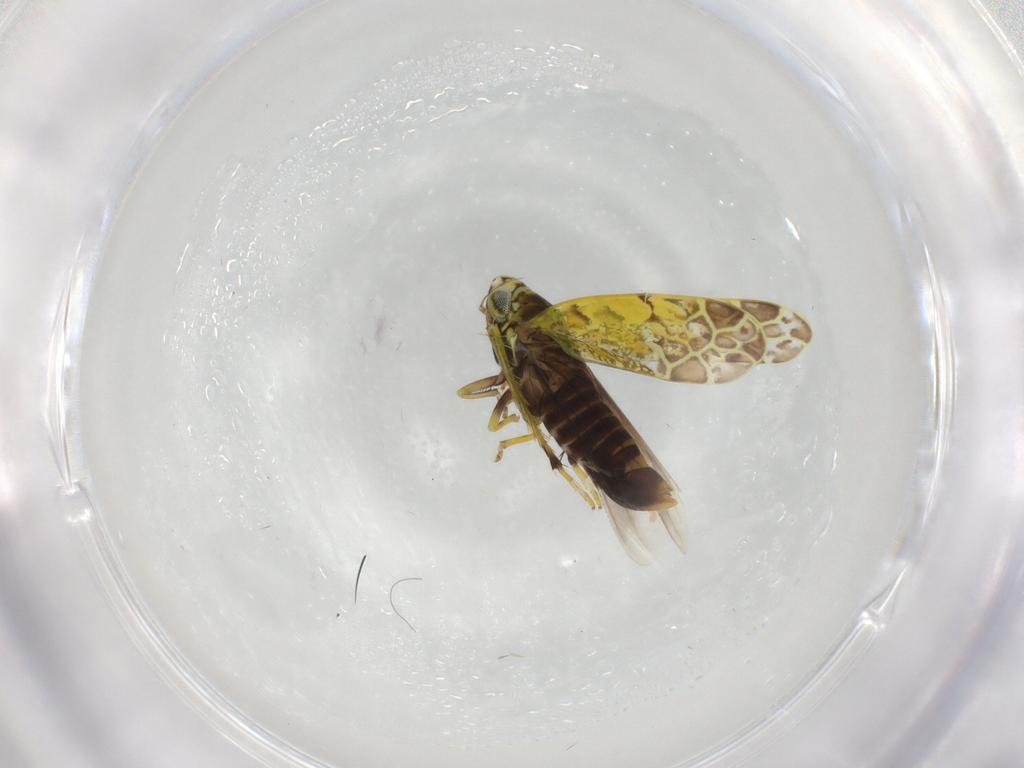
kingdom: Animalia
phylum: Arthropoda
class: Insecta
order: Hemiptera
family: Cicadellidae
